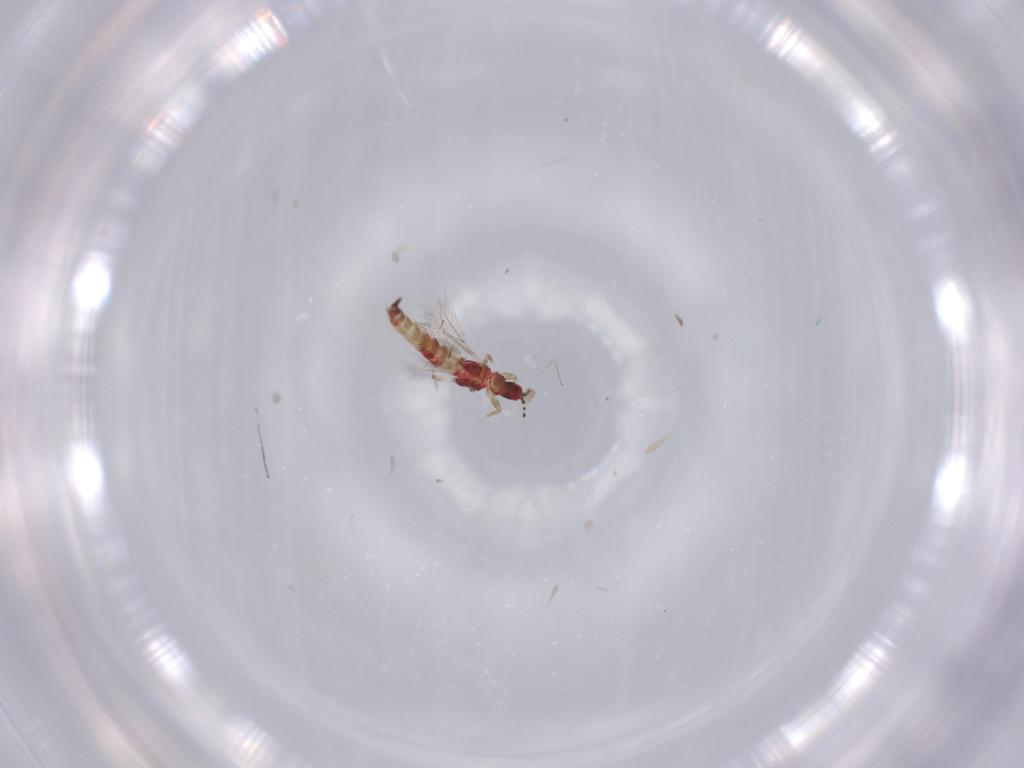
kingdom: Animalia
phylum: Arthropoda
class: Insecta
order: Thysanoptera
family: Phlaeothripidae
